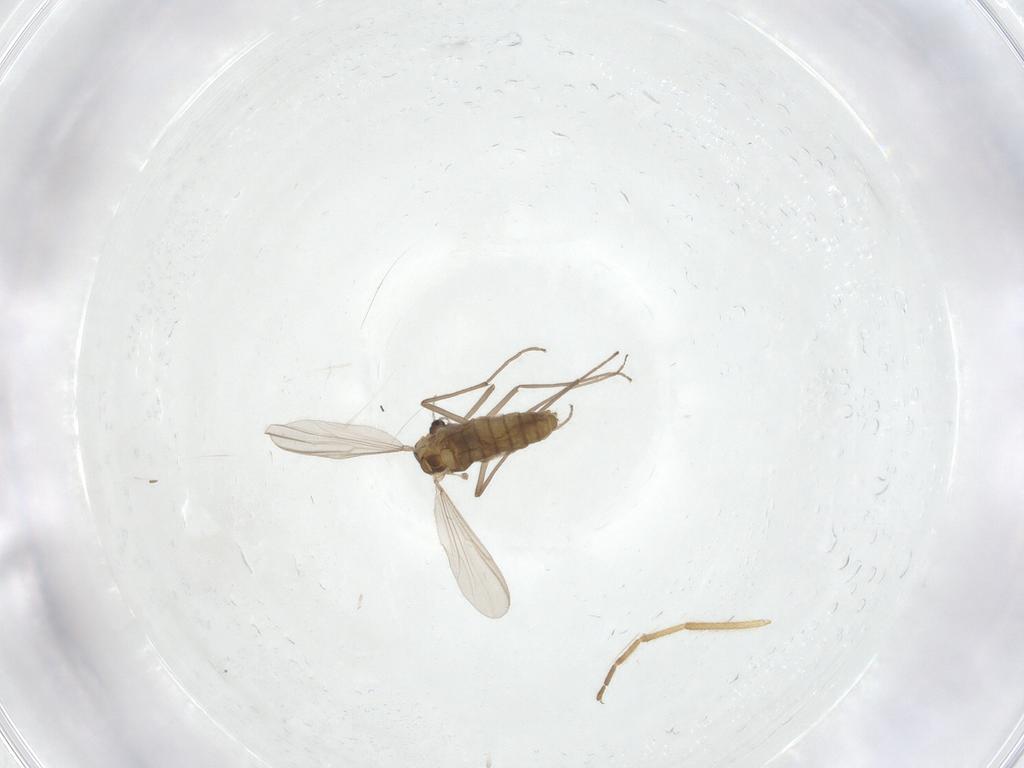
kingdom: Animalia
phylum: Arthropoda
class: Insecta
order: Diptera
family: Chironomidae
